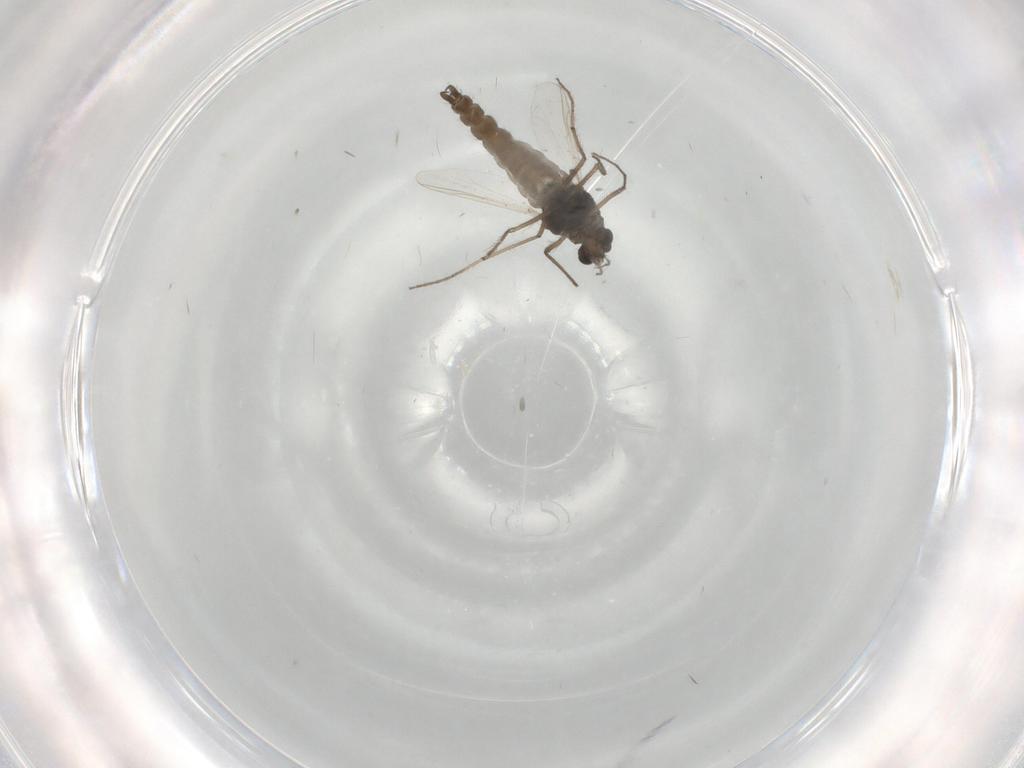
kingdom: Animalia
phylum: Arthropoda
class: Insecta
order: Diptera
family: Chironomidae
